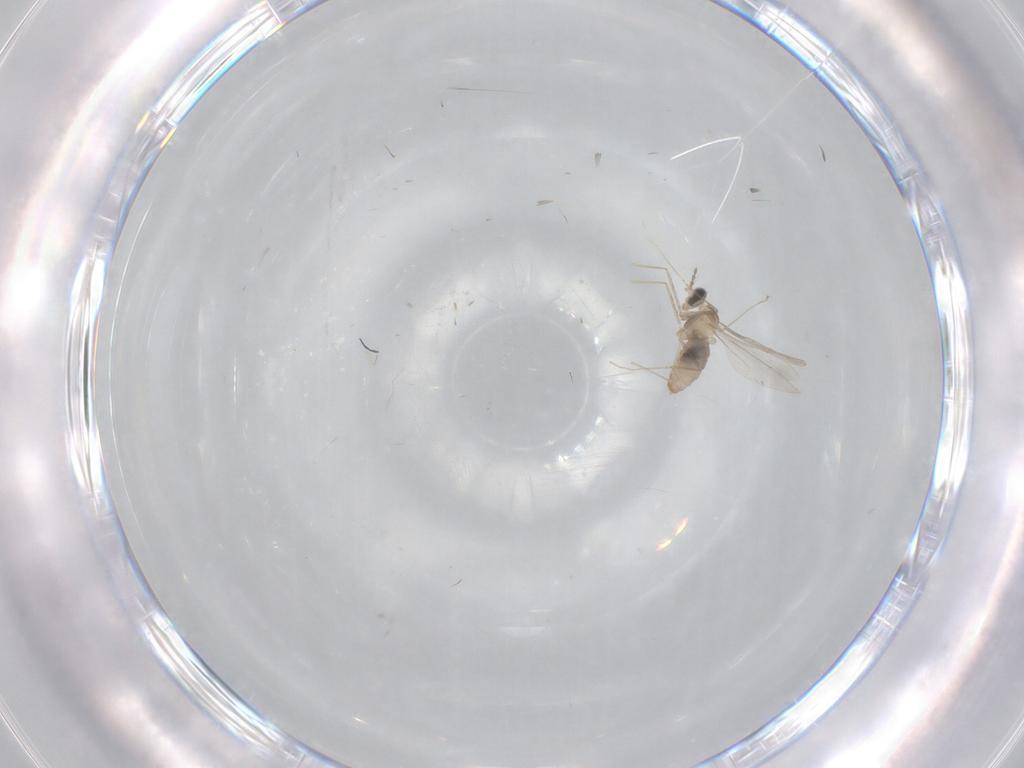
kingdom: Animalia
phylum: Arthropoda
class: Insecta
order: Diptera
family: Cecidomyiidae
